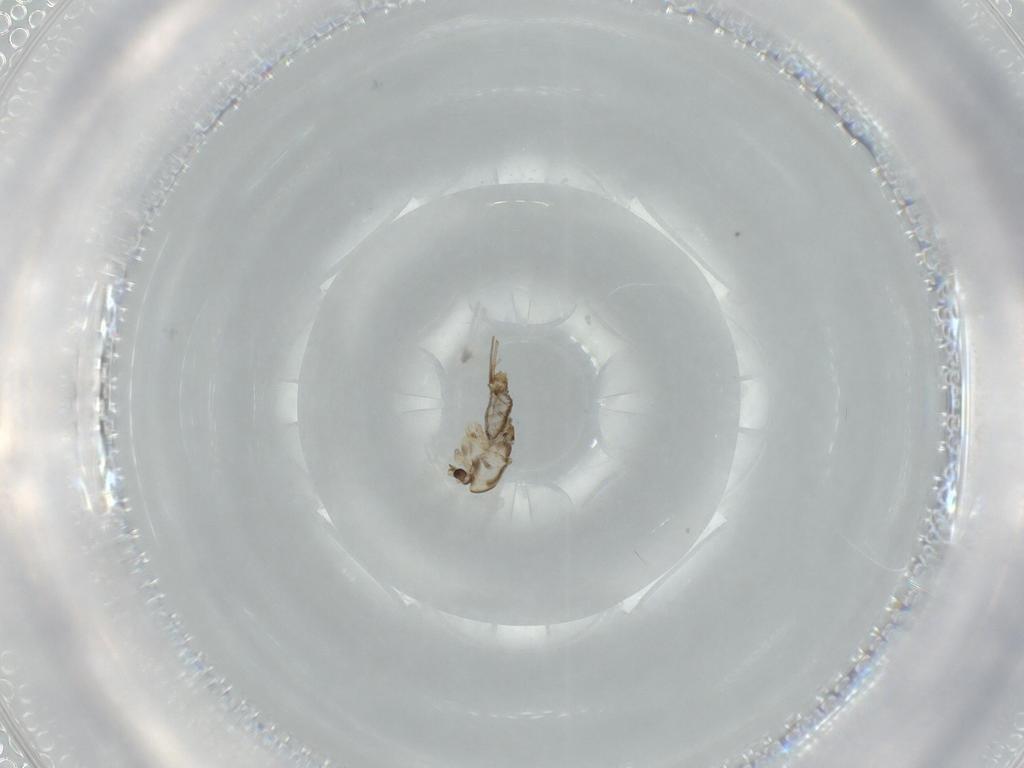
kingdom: Animalia
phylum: Arthropoda
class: Insecta
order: Diptera
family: Chironomidae
